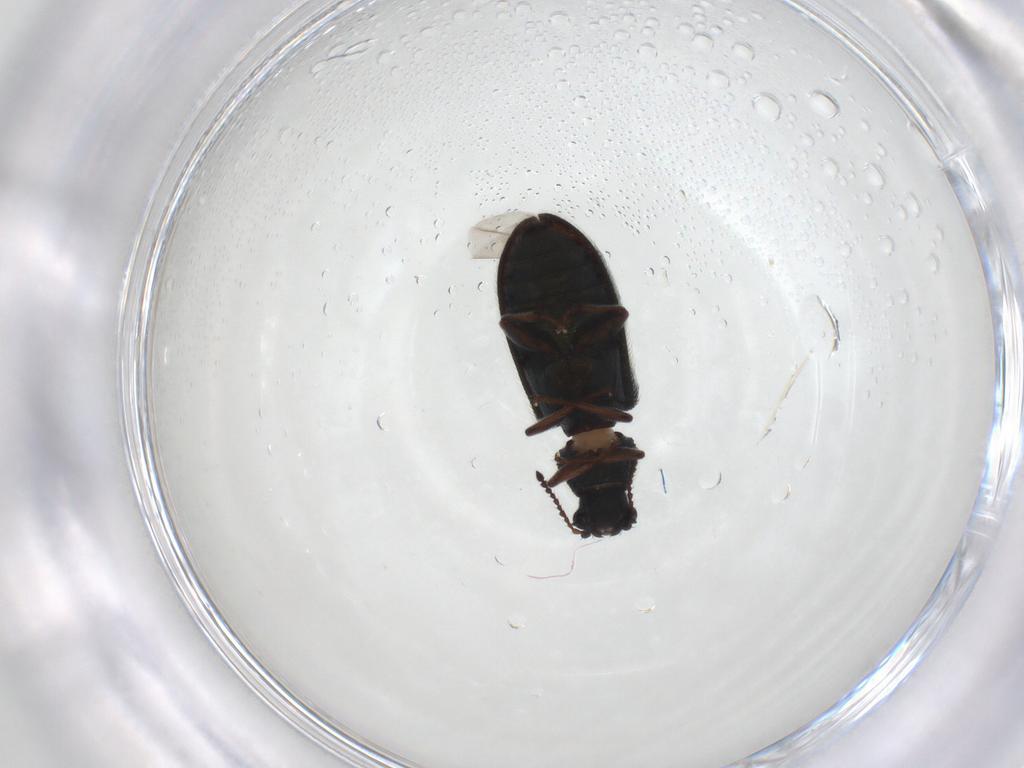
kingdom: Animalia
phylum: Arthropoda
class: Insecta
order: Coleoptera
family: Melyridae
